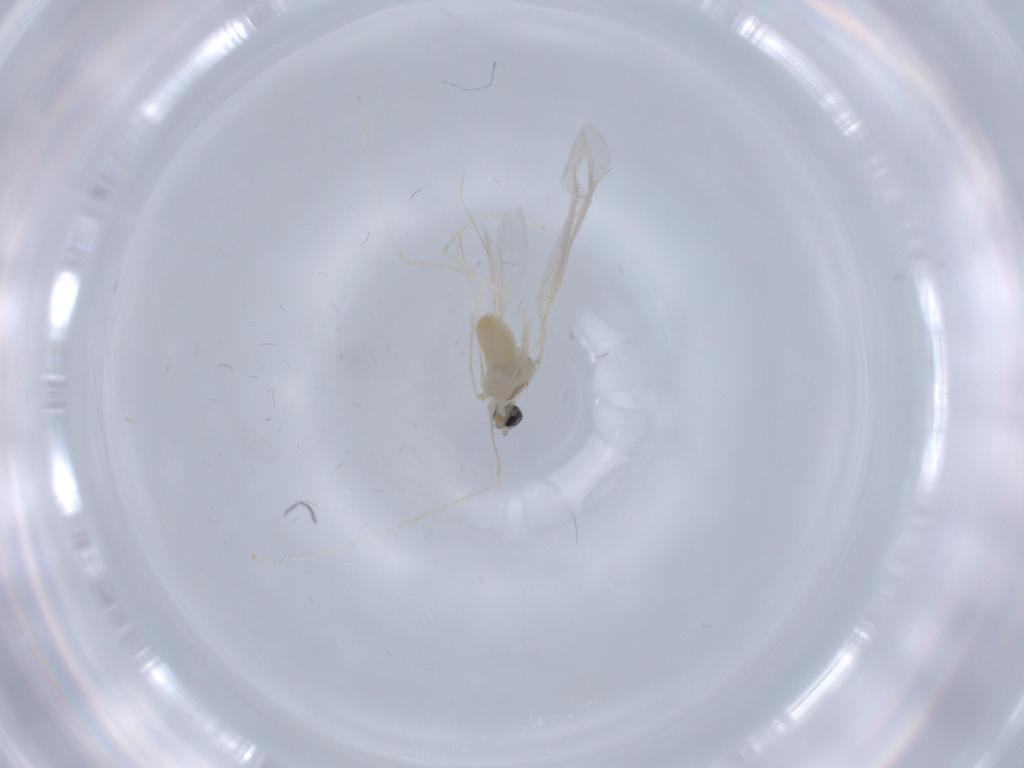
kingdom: Animalia
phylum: Arthropoda
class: Insecta
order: Diptera
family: Cecidomyiidae
